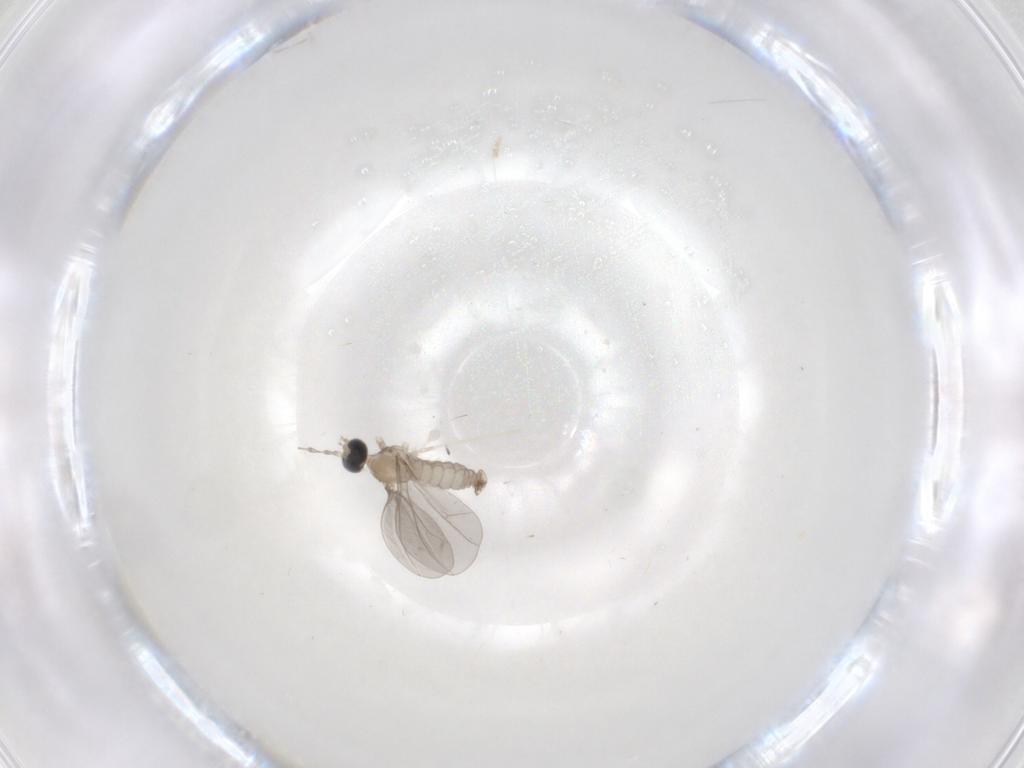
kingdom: Animalia
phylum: Arthropoda
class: Insecta
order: Diptera
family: Cecidomyiidae
